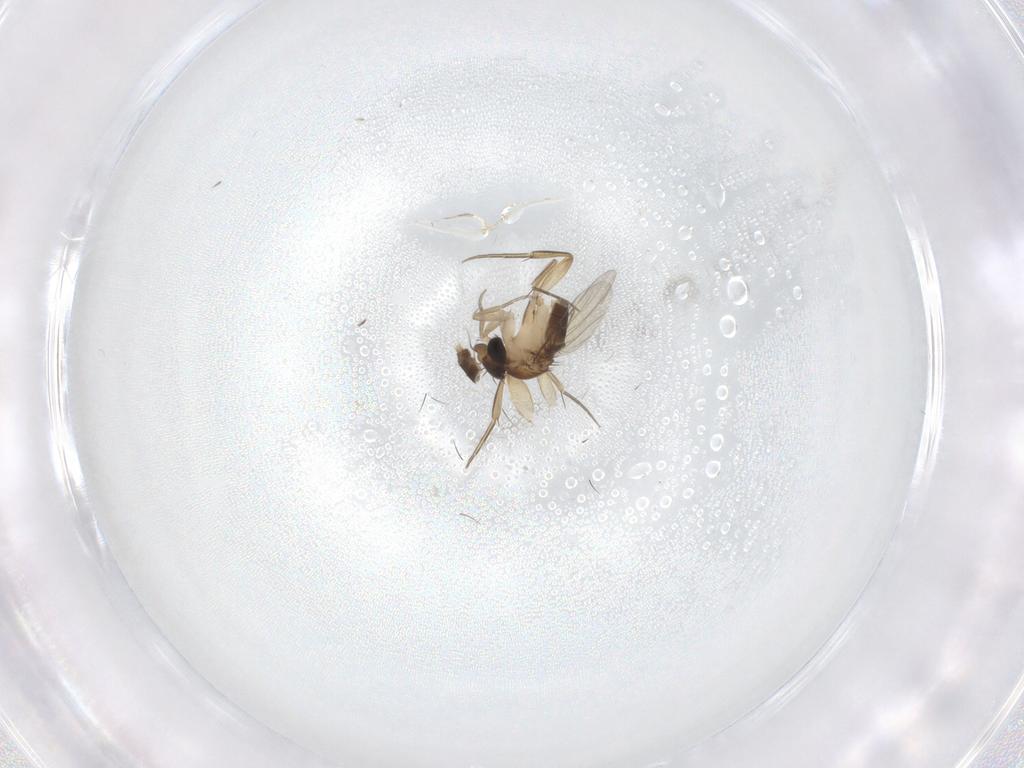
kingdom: Animalia
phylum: Arthropoda
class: Insecta
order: Diptera
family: Phoridae
